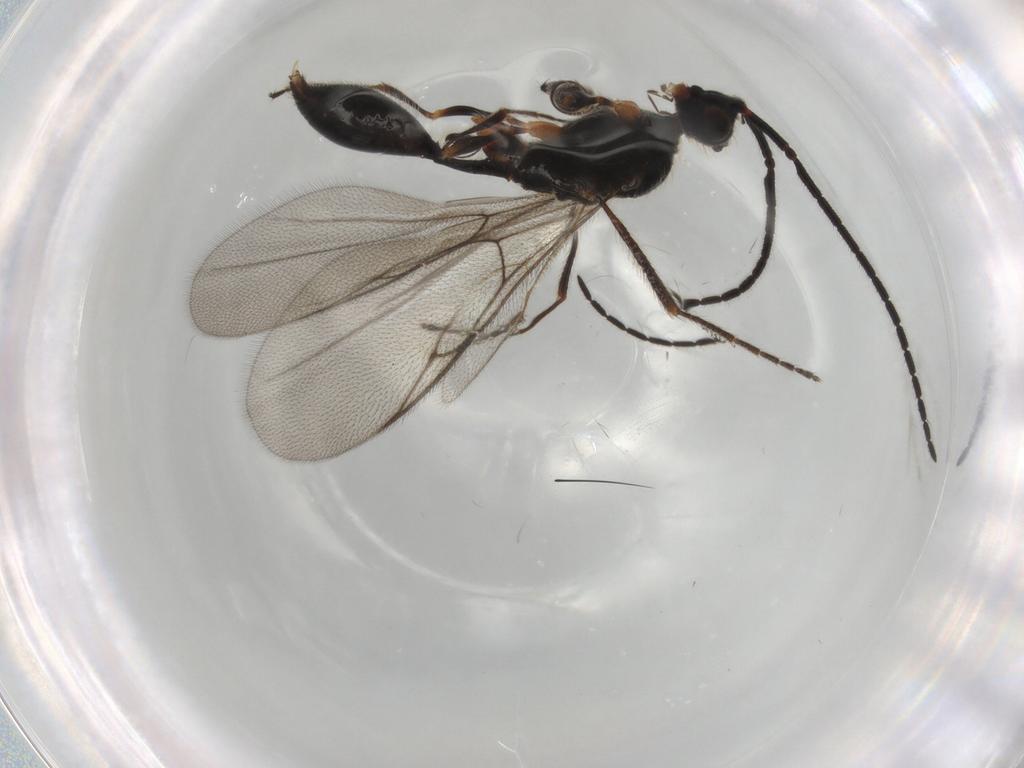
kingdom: Animalia
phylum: Arthropoda
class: Insecta
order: Hymenoptera
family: Diapriidae
